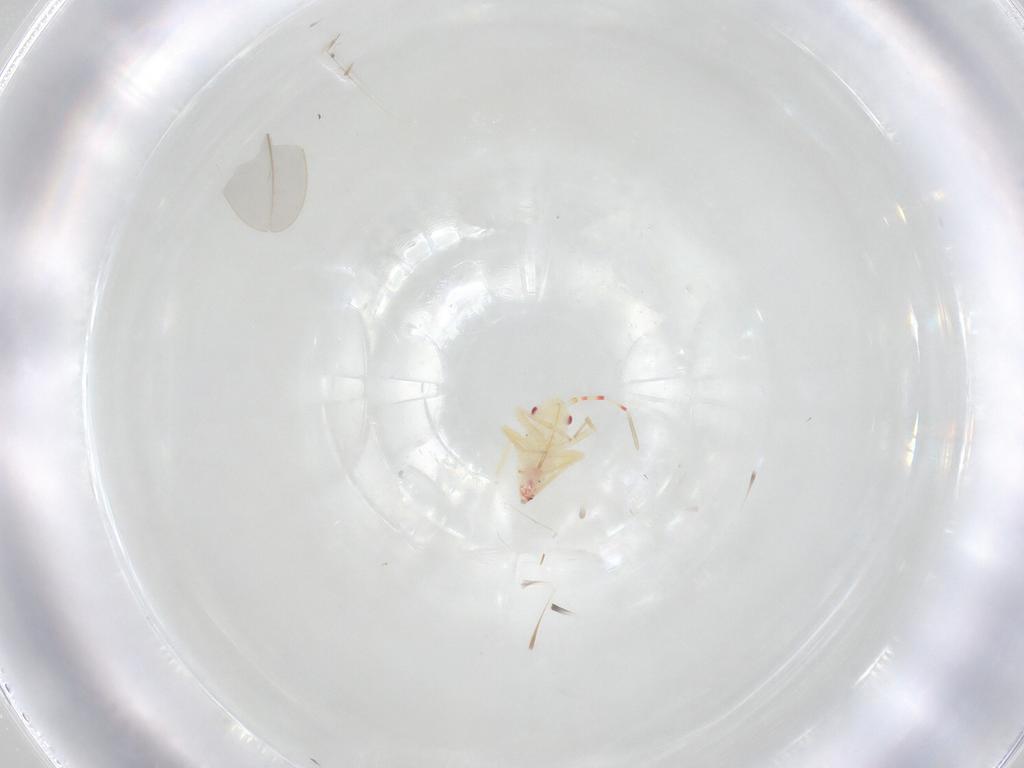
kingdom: Animalia
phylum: Arthropoda
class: Insecta
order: Hemiptera
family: Miridae
